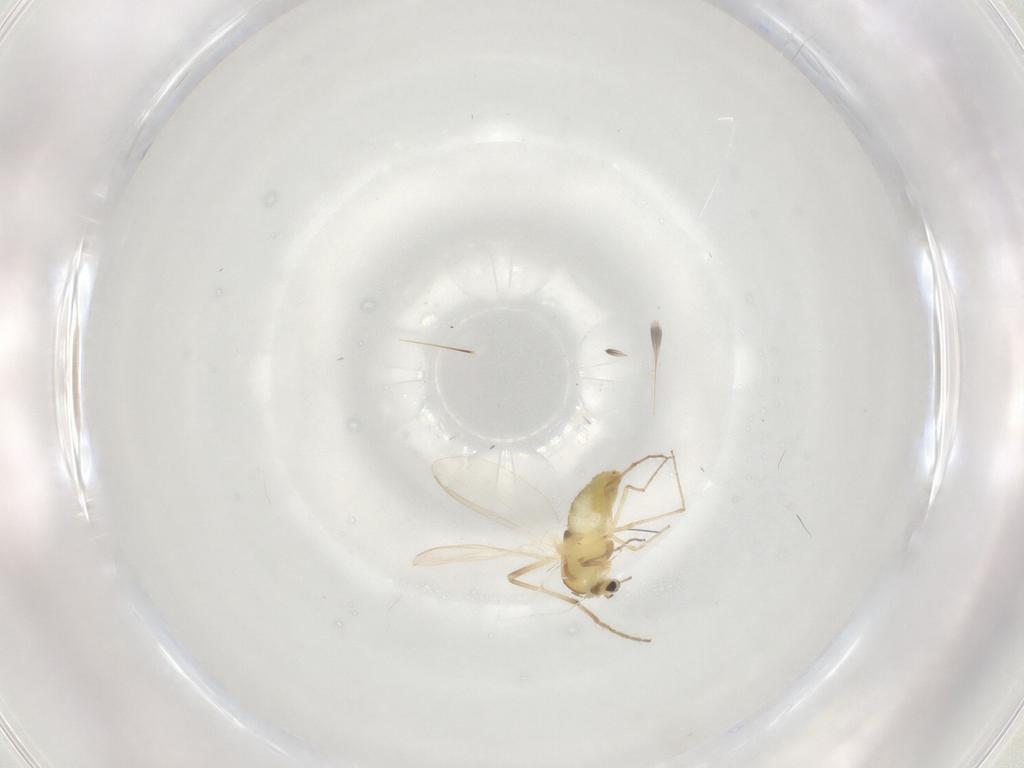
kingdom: Animalia
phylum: Arthropoda
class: Insecta
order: Diptera
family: Chironomidae
